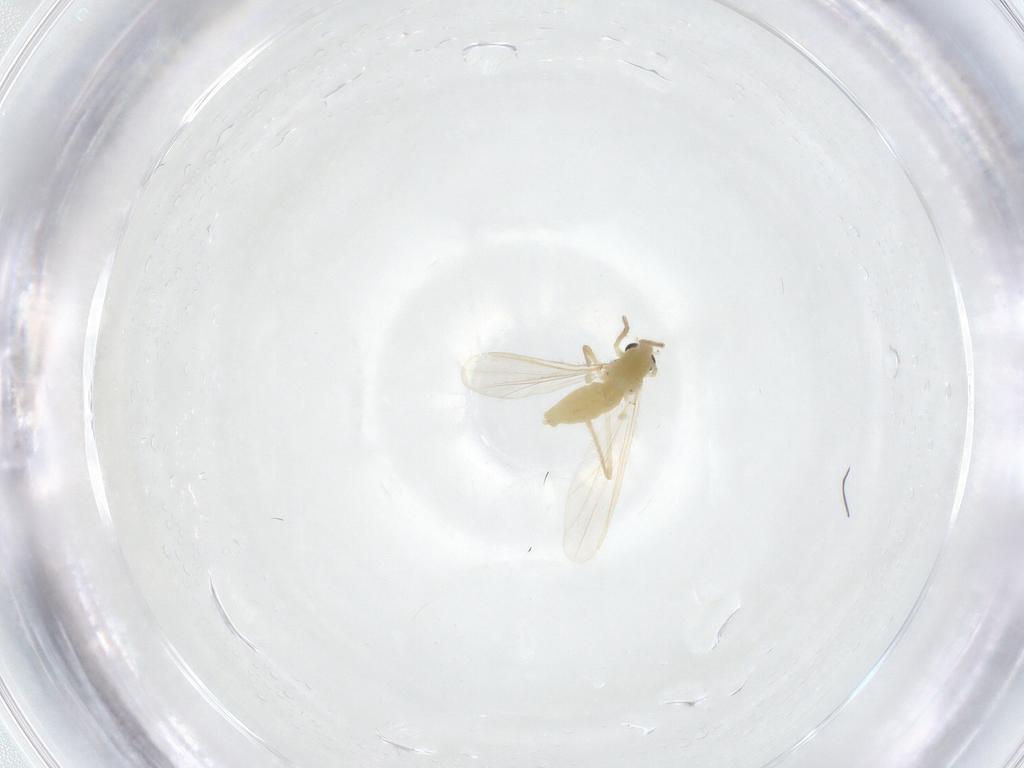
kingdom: Animalia
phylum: Arthropoda
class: Insecta
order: Diptera
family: Chironomidae
